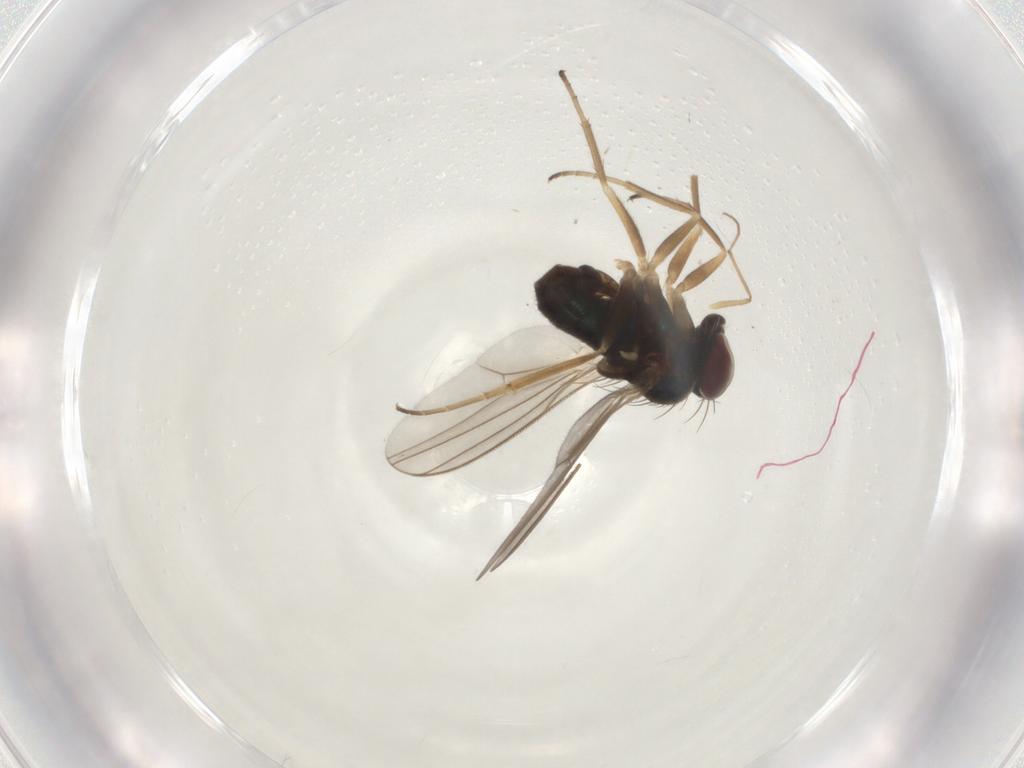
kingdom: Animalia
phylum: Arthropoda
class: Insecta
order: Diptera
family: Dolichopodidae
